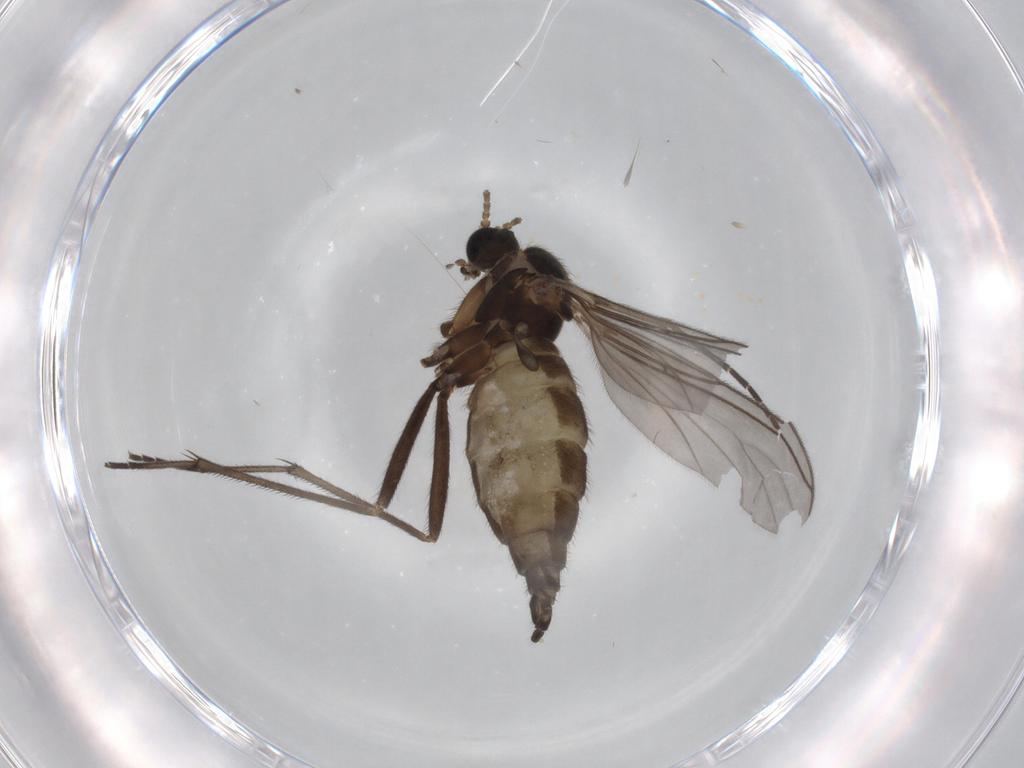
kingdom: Animalia
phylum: Arthropoda
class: Insecta
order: Diptera
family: Sciaridae
